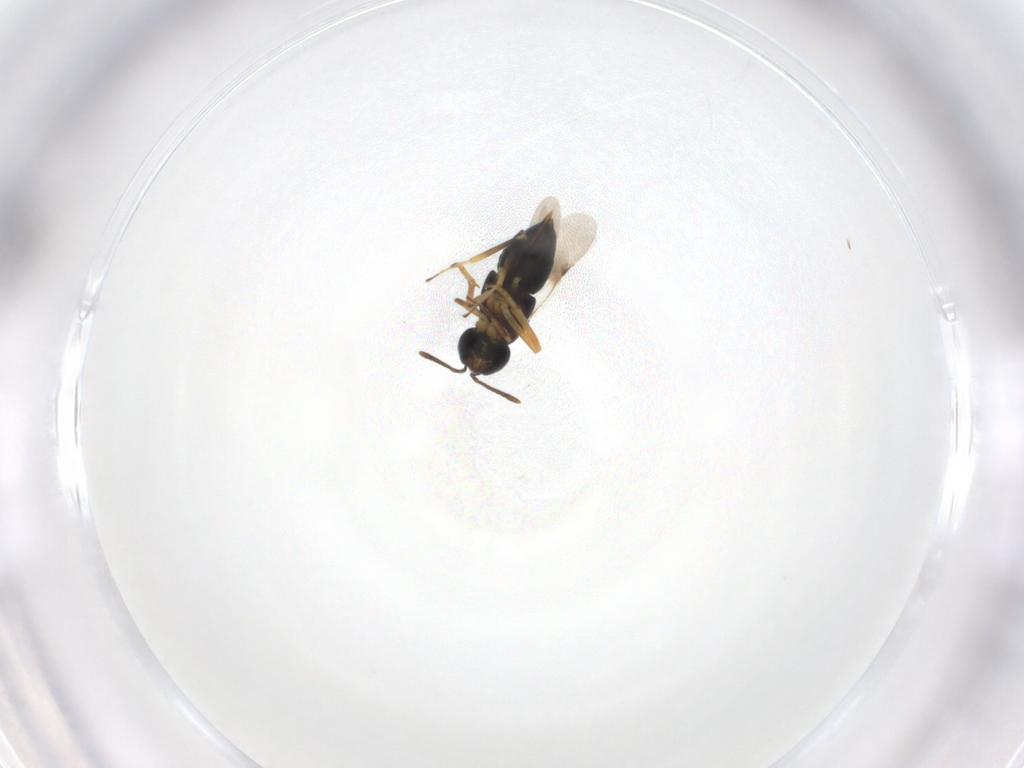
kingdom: Animalia
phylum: Arthropoda
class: Insecta
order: Hymenoptera
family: Encyrtidae
